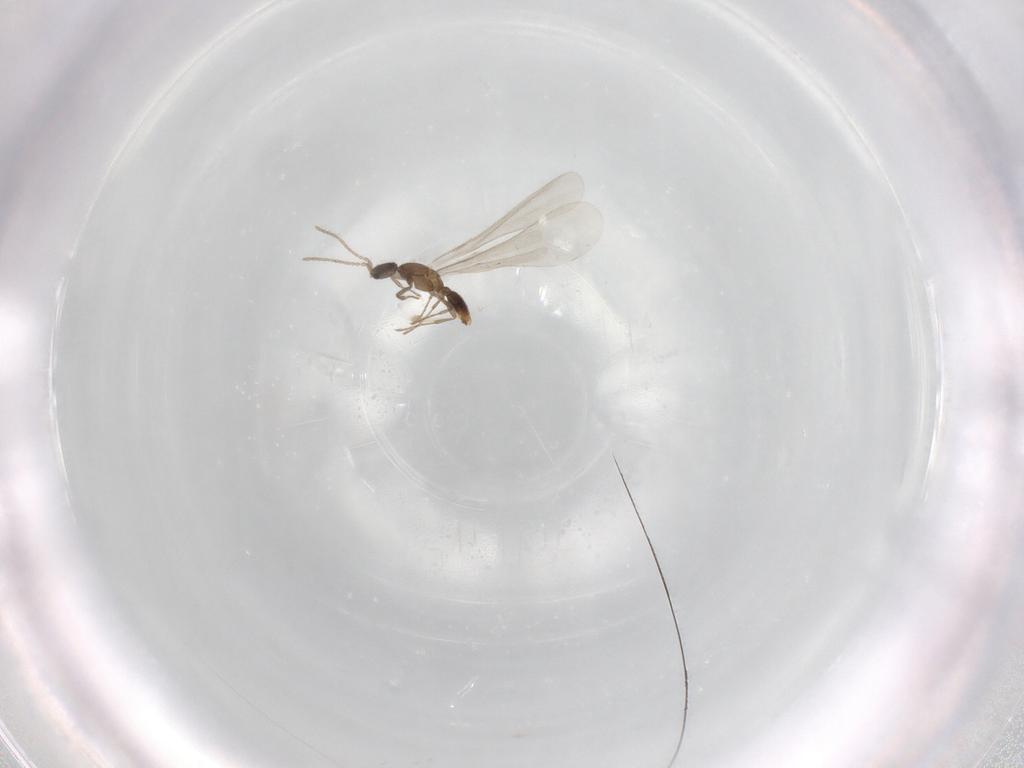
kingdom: Animalia
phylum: Arthropoda
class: Insecta
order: Hymenoptera
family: Formicidae
